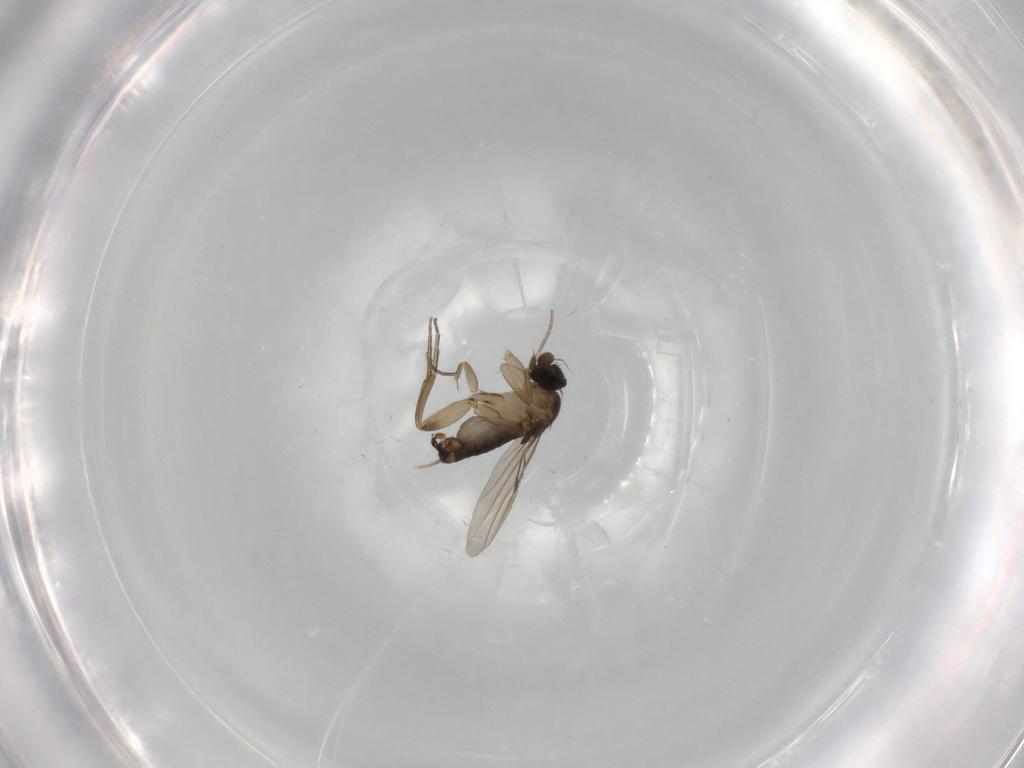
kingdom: Animalia
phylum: Arthropoda
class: Insecta
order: Diptera
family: Phoridae
